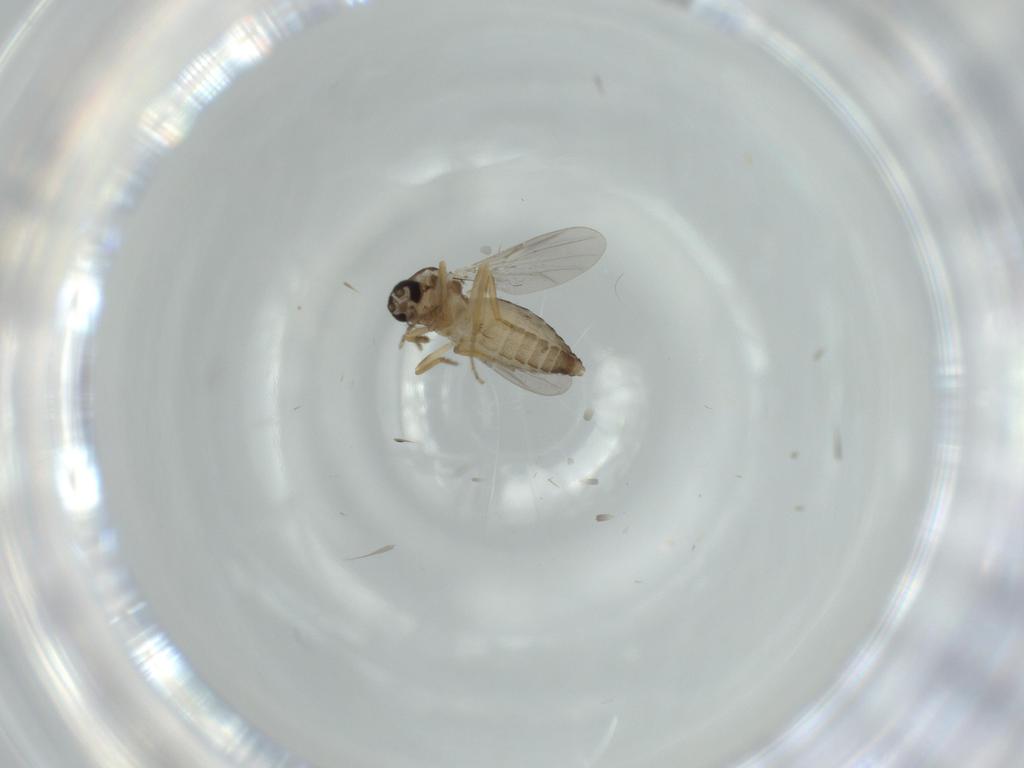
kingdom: Animalia
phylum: Arthropoda
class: Insecta
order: Diptera
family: Ceratopogonidae
